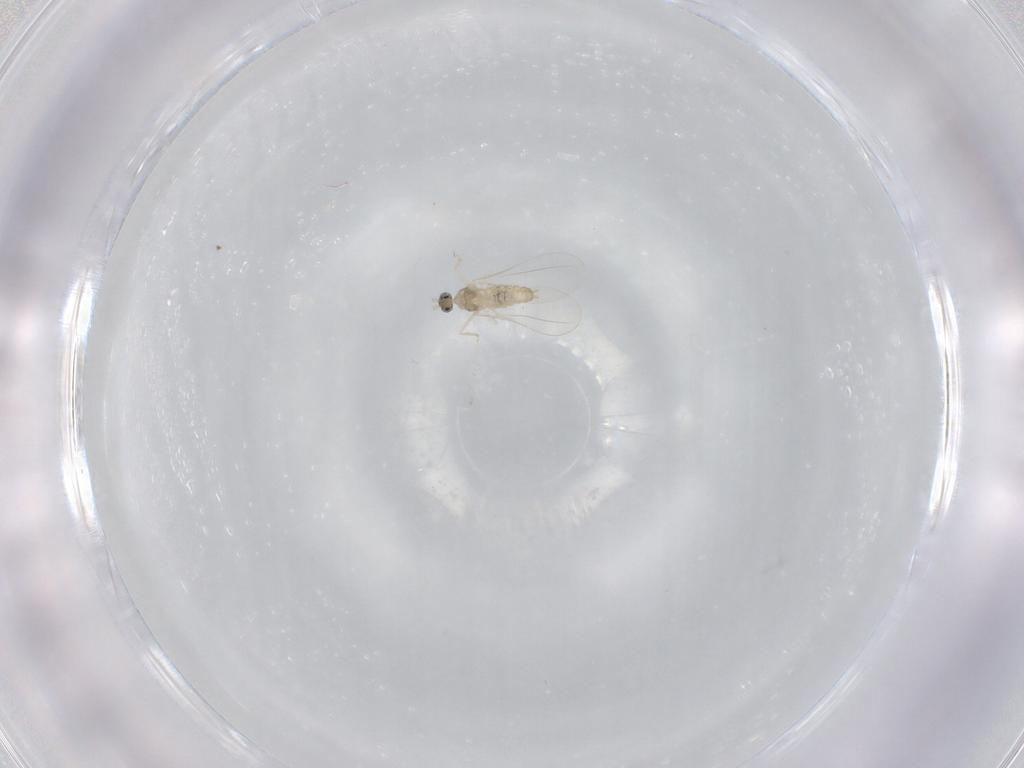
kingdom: Animalia
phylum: Arthropoda
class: Insecta
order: Diptera
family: Cecidomyiidae
